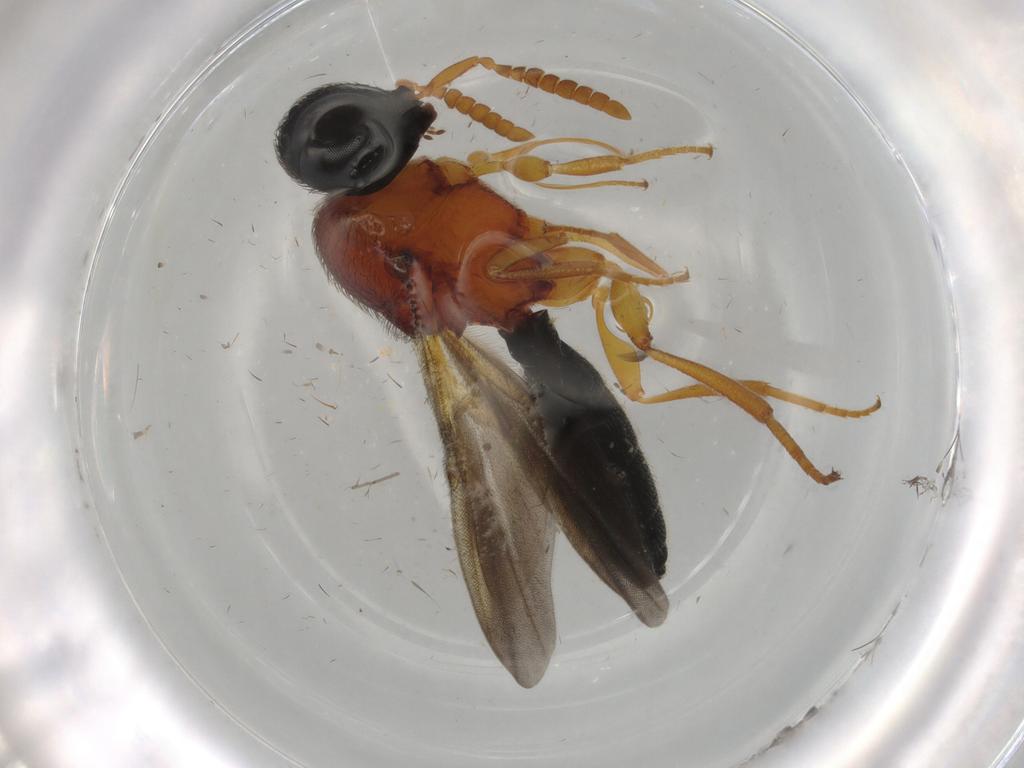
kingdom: Animalia
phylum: Arthropoda
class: Insecta
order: Hymenoptera
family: Scelionidae
